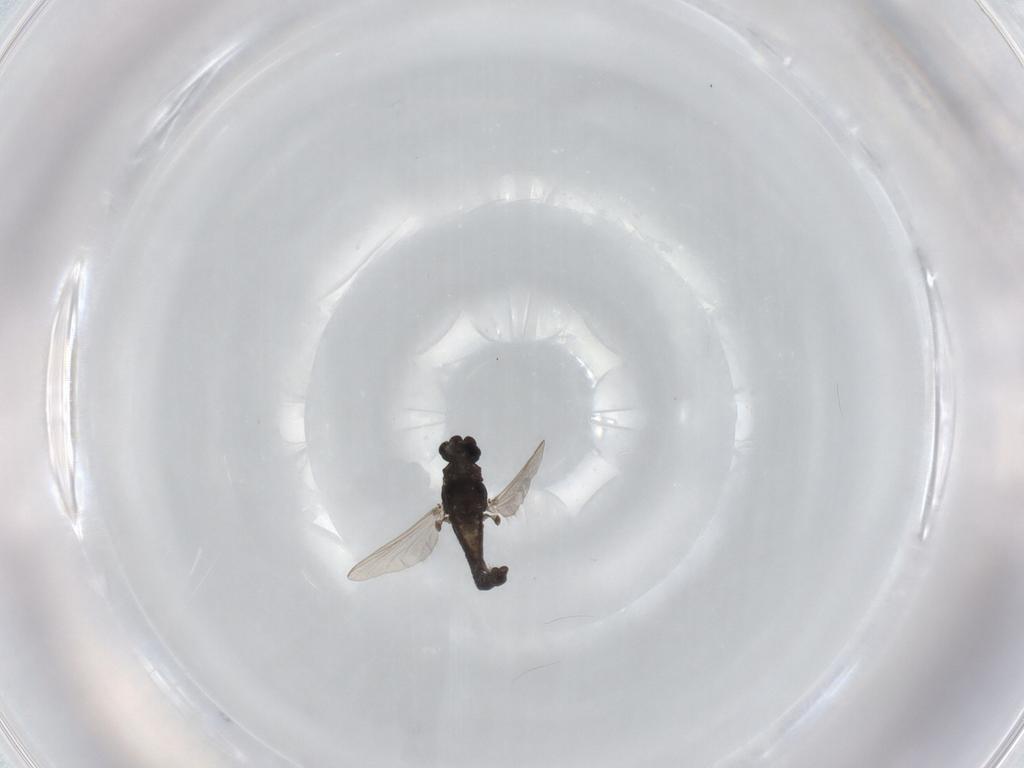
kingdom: Animalia
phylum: Arthropoda
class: Insecta
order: Diptera
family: Chironomidae
